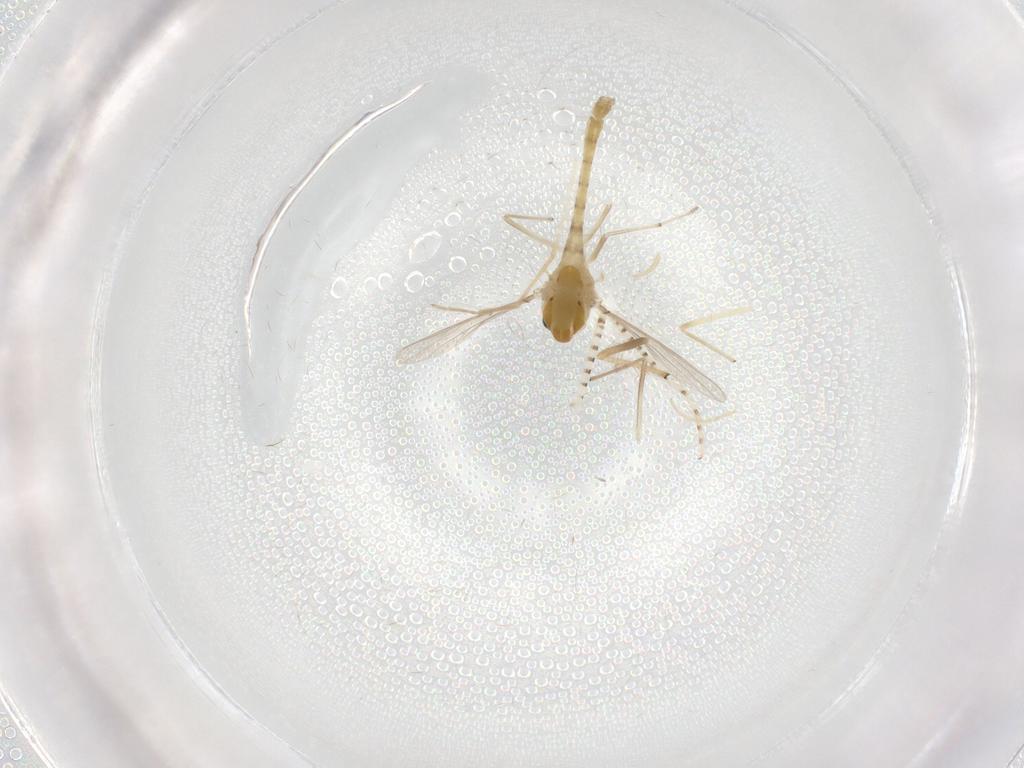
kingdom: Animalia
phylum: Arthropoda
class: Insecta
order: Diptera
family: Chironomidae
